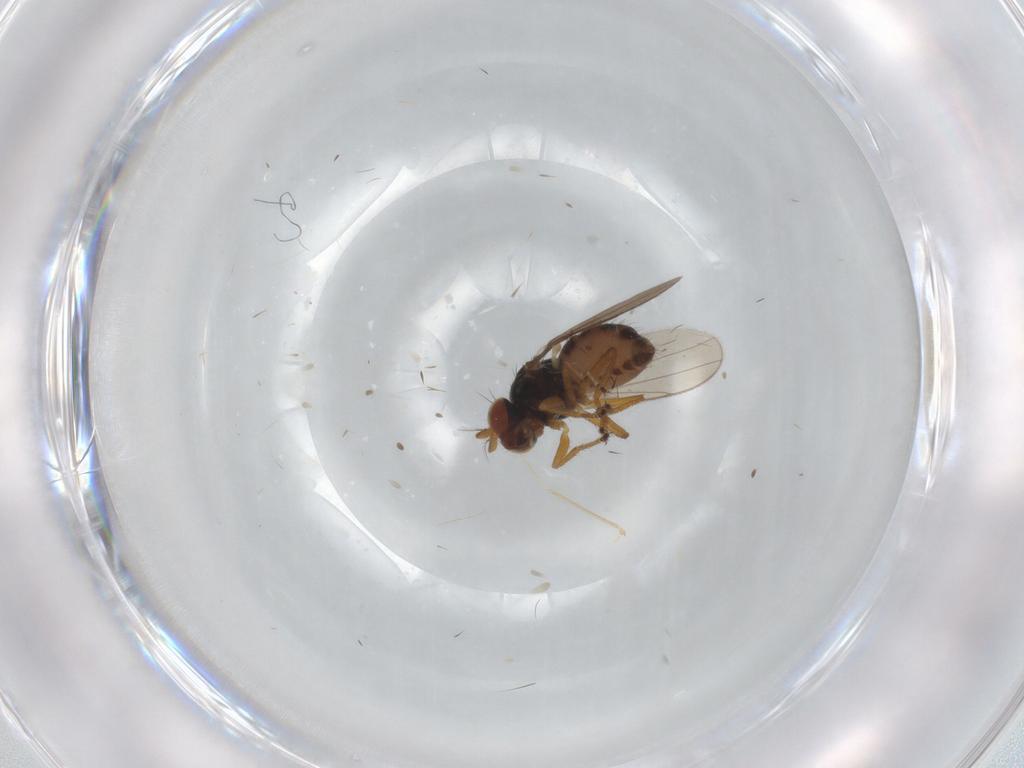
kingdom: Animalia
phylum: Arthropoda
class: Insecta
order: Diptera
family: Ephydridae
